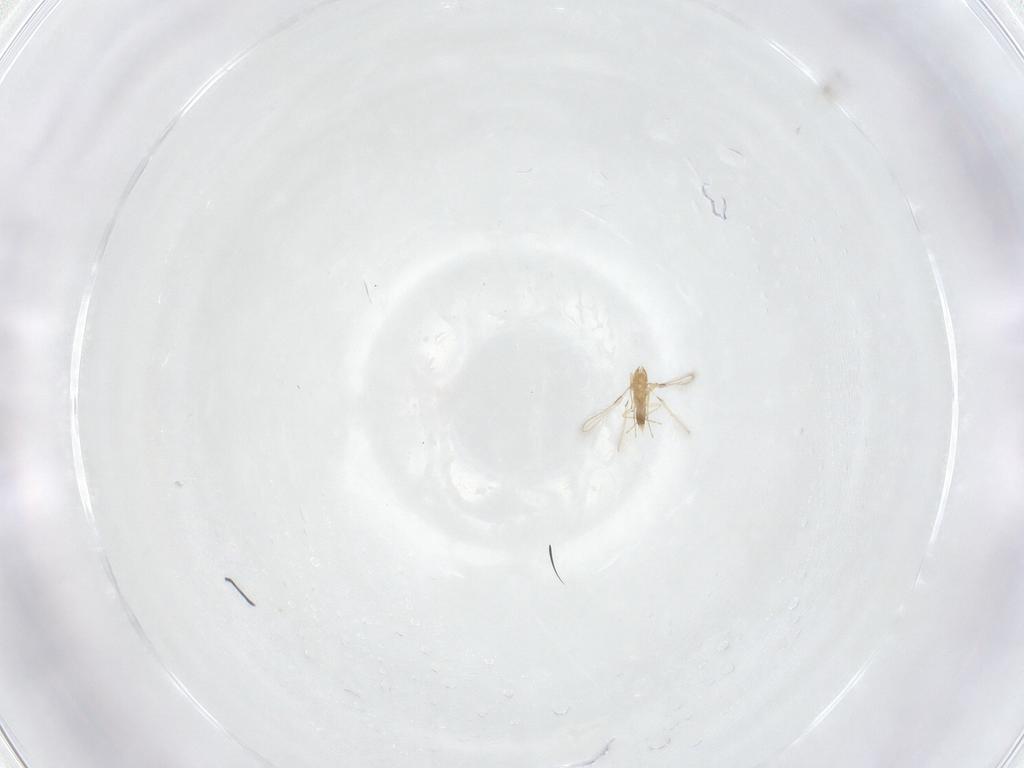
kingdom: Animalia
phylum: Arthropoda
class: Insecta
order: Hymenoptera
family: Mymaridae
